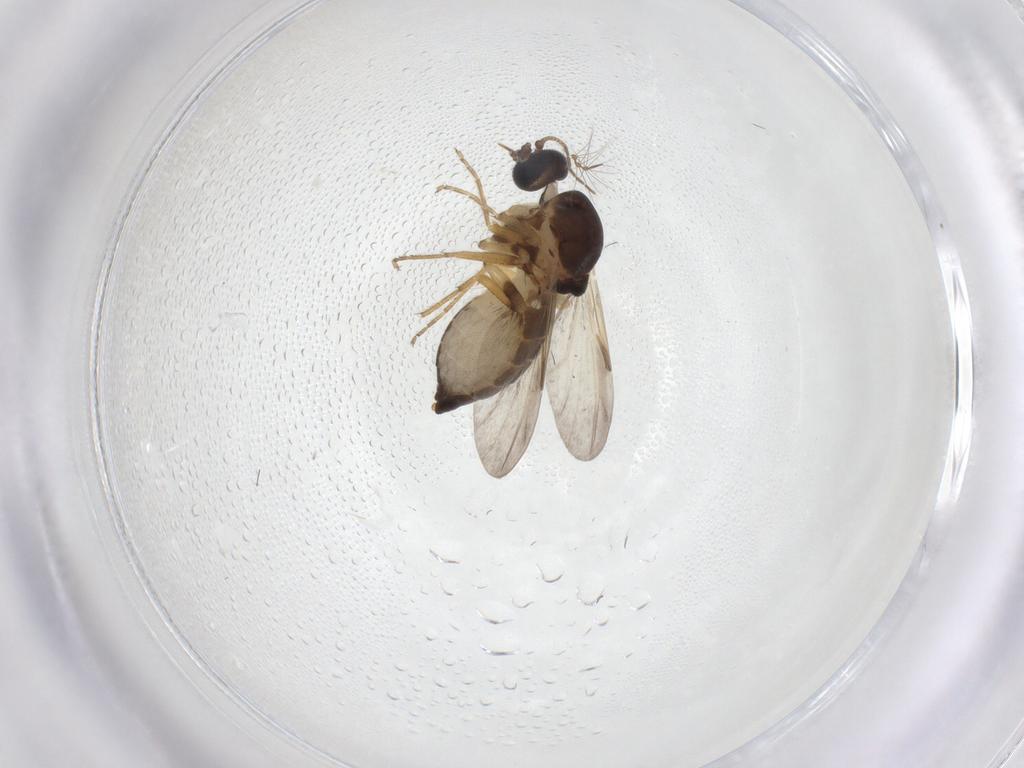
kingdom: Animalia
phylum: Arthropoda
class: Insecta
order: Diptera
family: Ceratopogonidae
